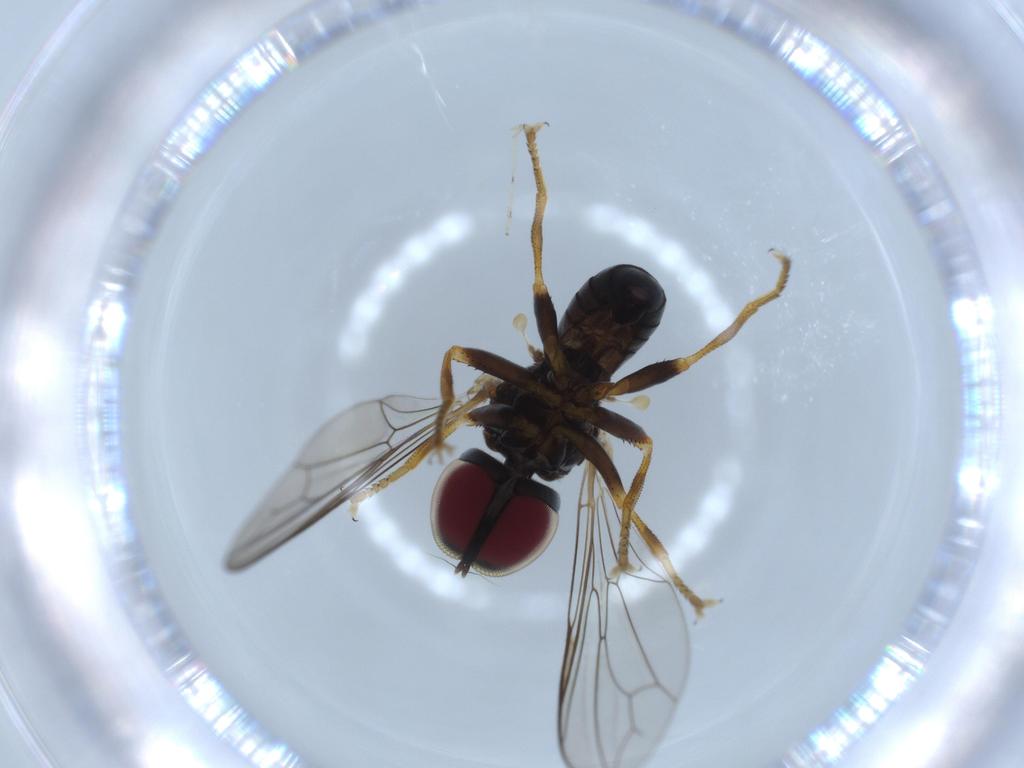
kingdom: Animalia
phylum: Arthropoda
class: Insecta
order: Diptera
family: Pipunculidae
